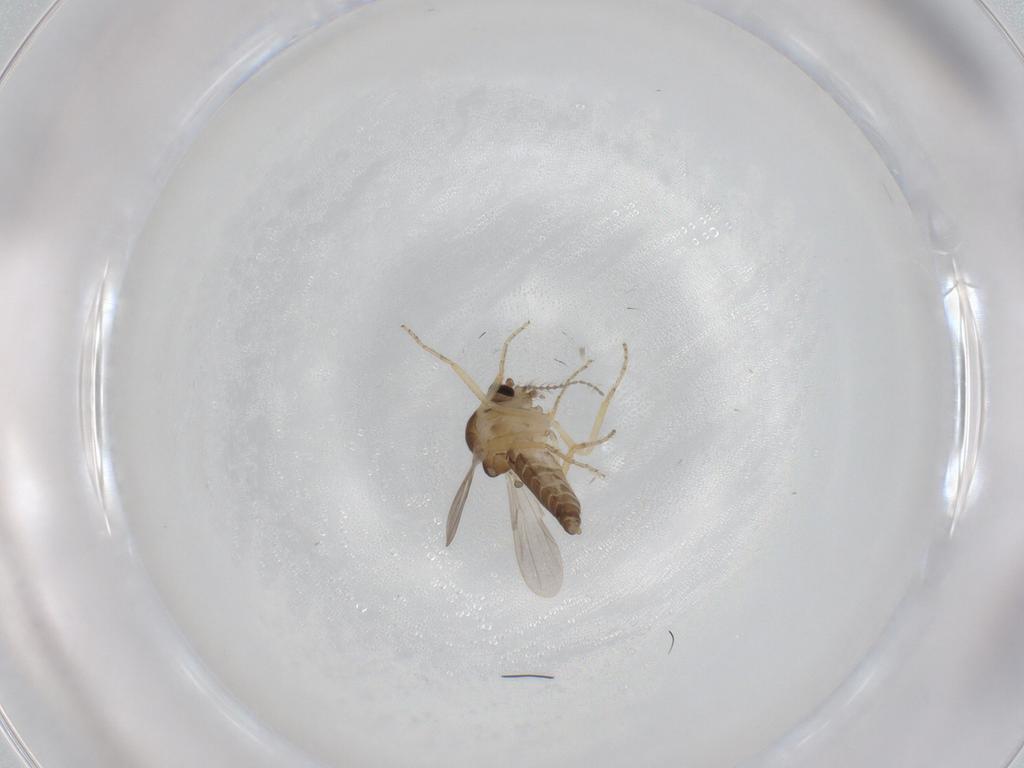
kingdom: Animalia
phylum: Arthropoda
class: Insecta
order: Diptera
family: Ceratopogonidae
